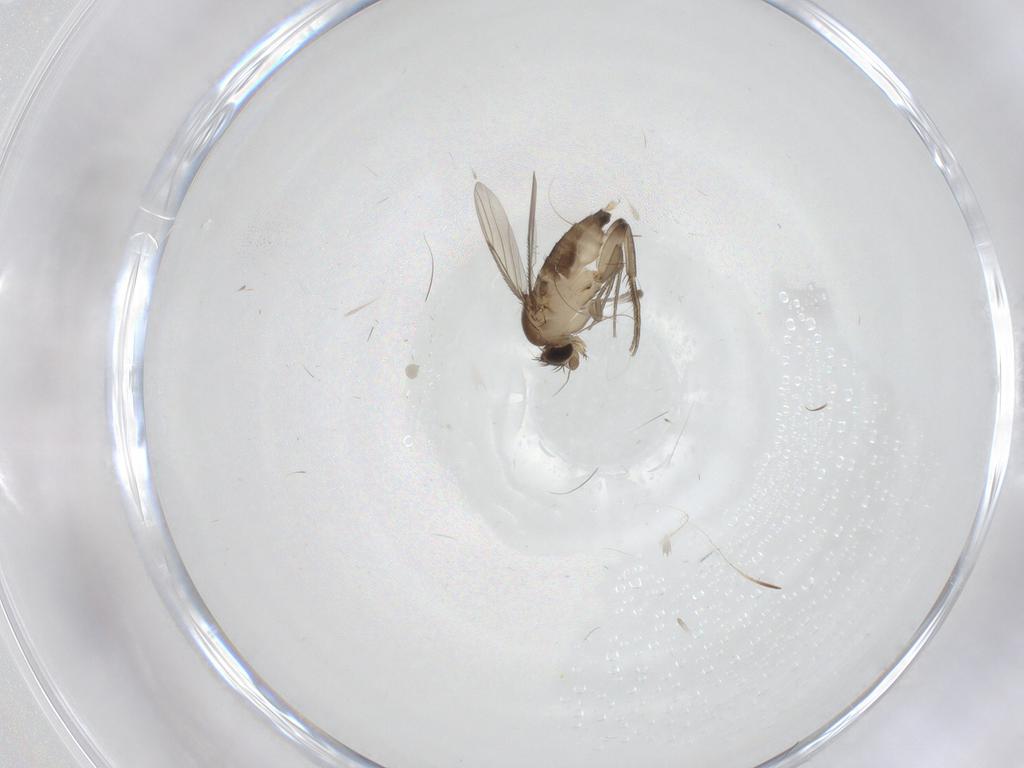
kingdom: Animalia
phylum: Arthropoda
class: Insecta
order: Diptera
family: Phoridae
